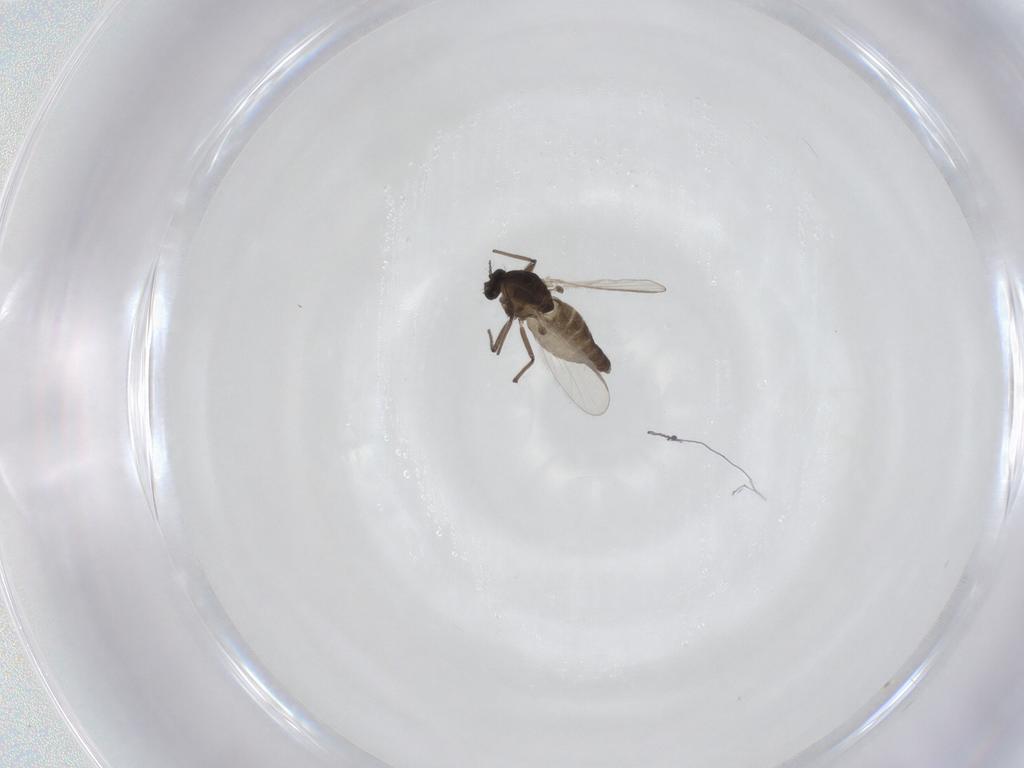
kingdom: Animalia
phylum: Arthropoda
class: Insecta
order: Diptera
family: Chironomidae
